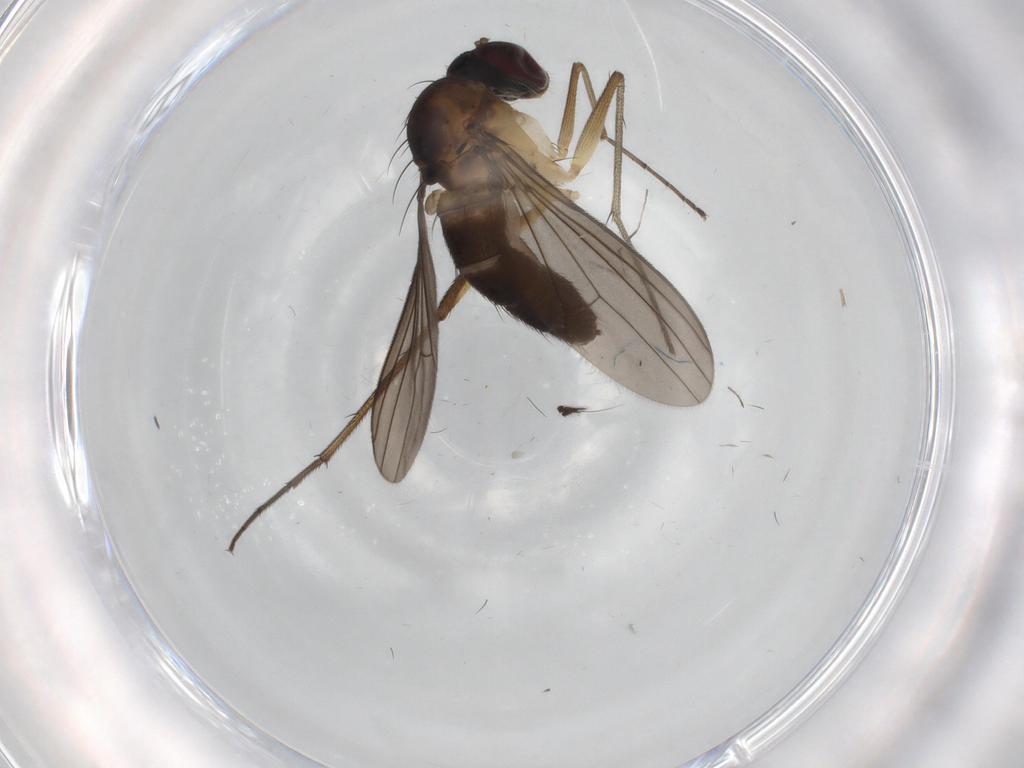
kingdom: Animalia
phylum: Arthropoda
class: Insecta
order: Diptera
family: Dolichopodidae
